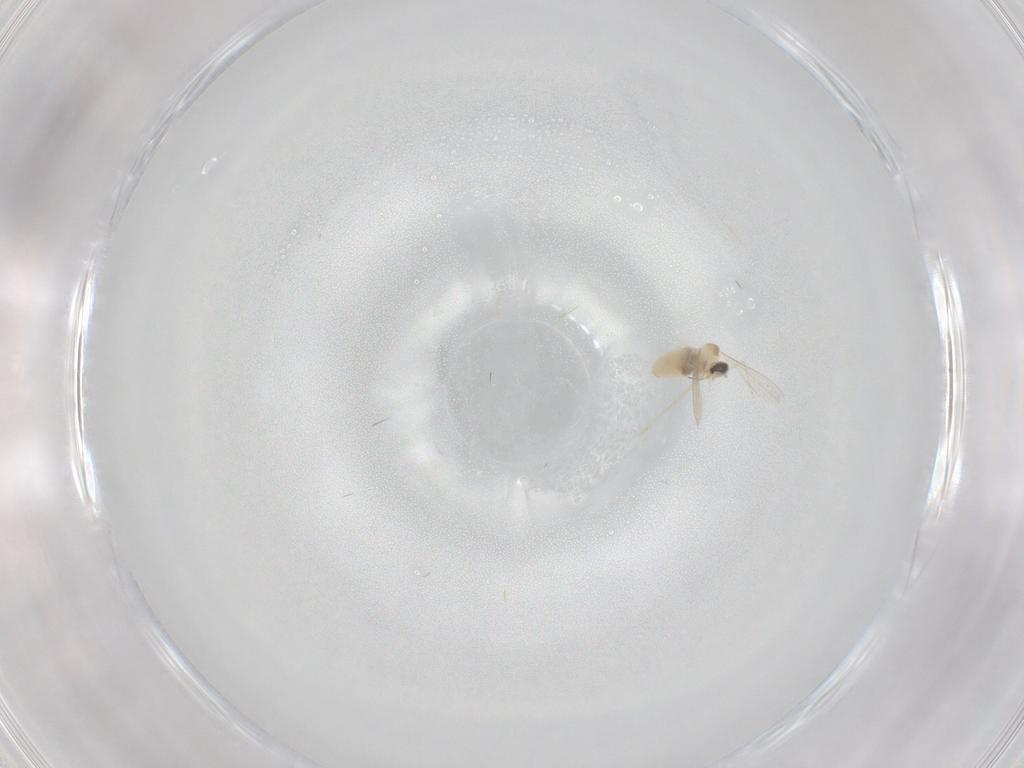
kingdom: Animalia
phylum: Arthropoda
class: Insecta
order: Diptera
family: Cecidomyiidae
